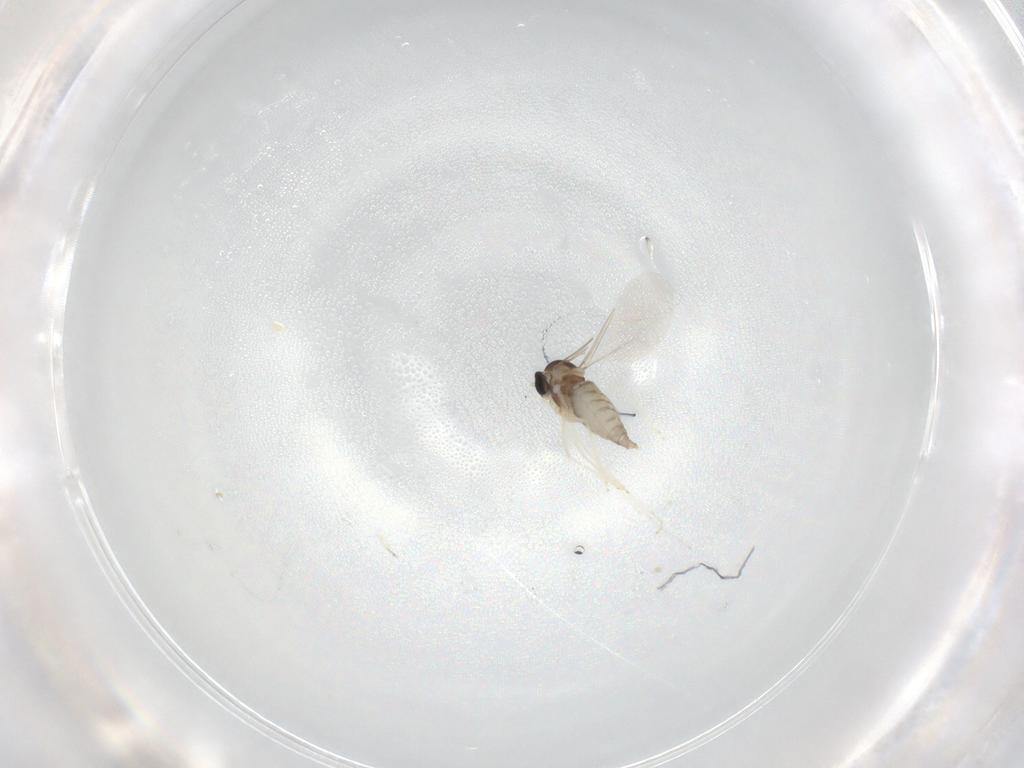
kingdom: Animalia
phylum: Arthropoda
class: Insecta
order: Diptera
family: Cecidomyiidae
